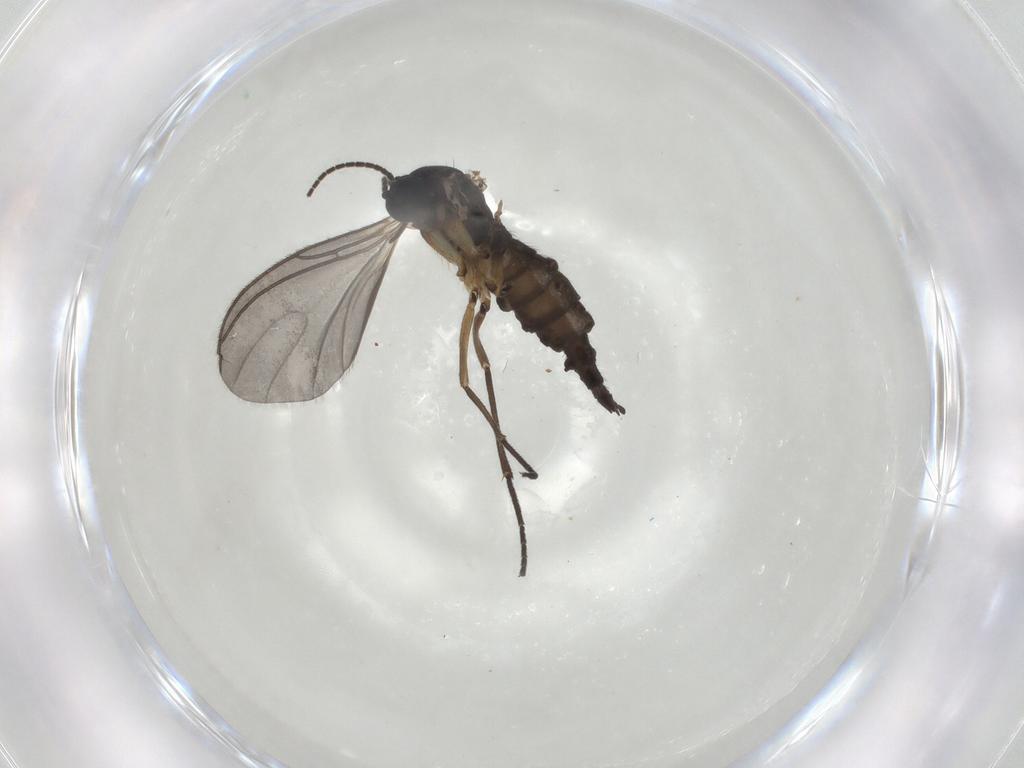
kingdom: Animalia
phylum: Arthropoda
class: Insecta
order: Diptera
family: Sciaridae
